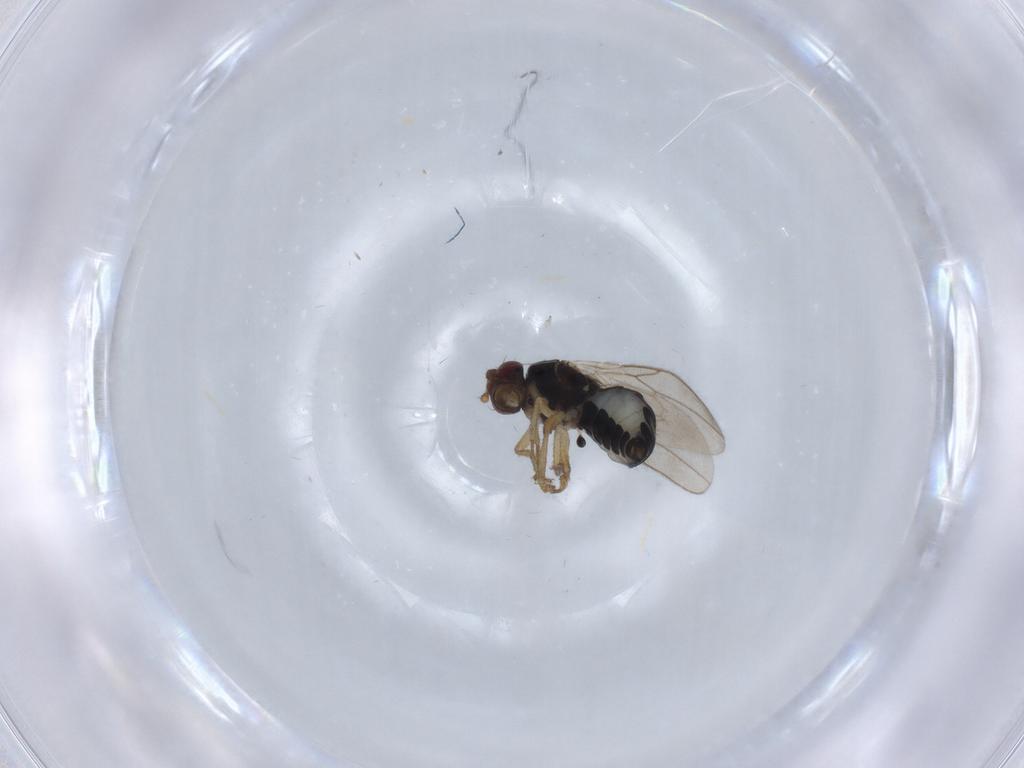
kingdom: Animalia
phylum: Arthropoda
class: Insecta
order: Diptera
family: Sphaeroceridae
